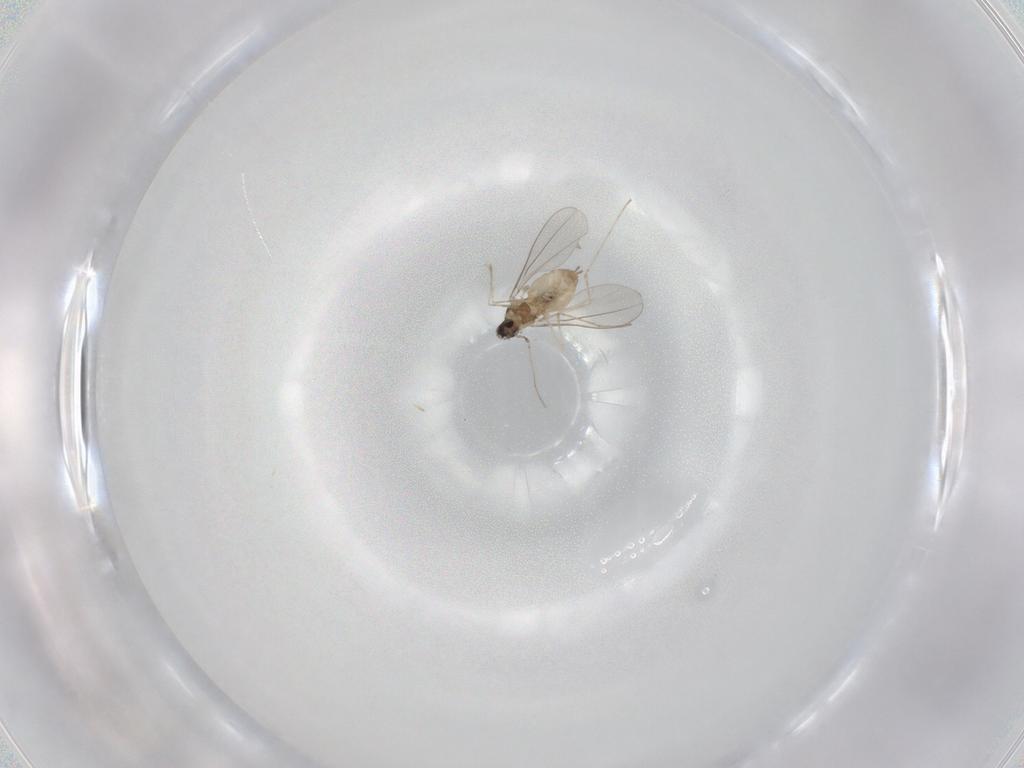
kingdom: Animalia
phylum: Arthropoda
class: Insecta
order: Diptera
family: Cecidomyiidae
